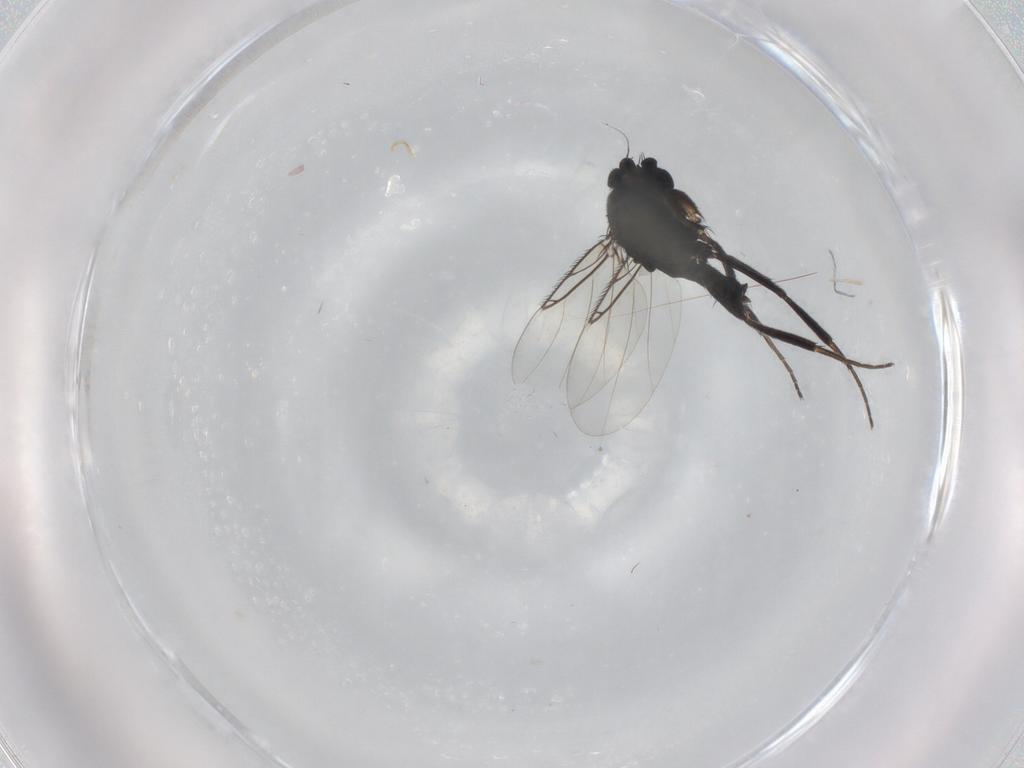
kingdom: Animalia
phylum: Arthropoda
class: Insecta
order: Diptera
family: Phoridae
